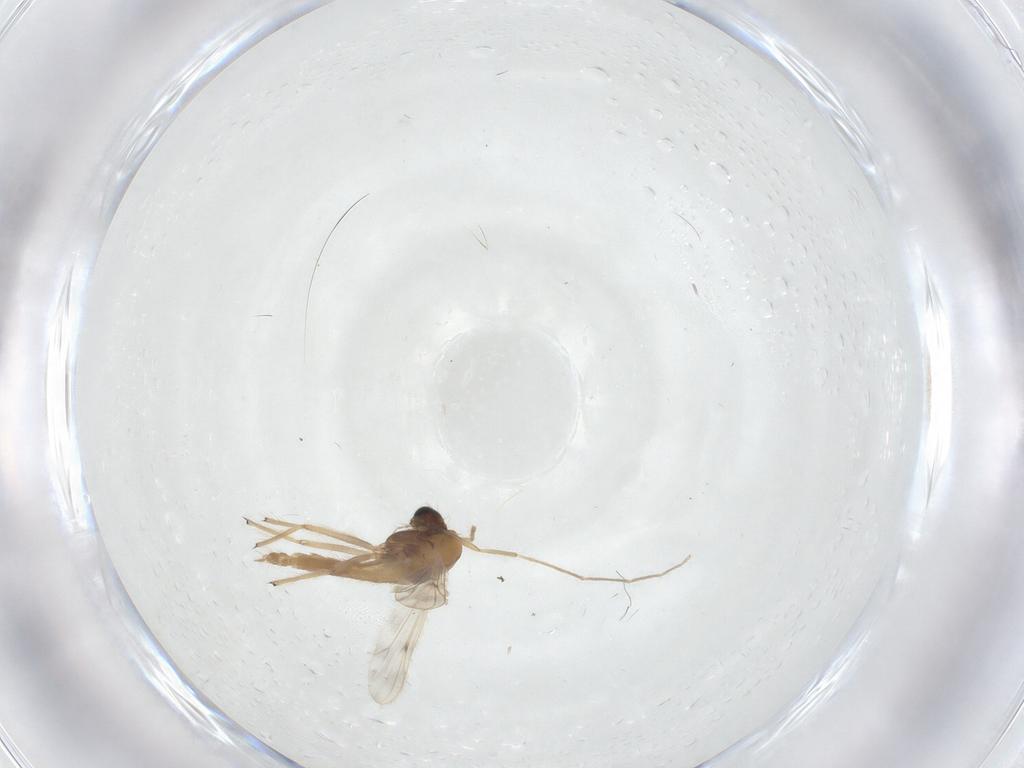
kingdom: Animalia
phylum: Arthropoda
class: Insecta
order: Diptera
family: Chironomidae
